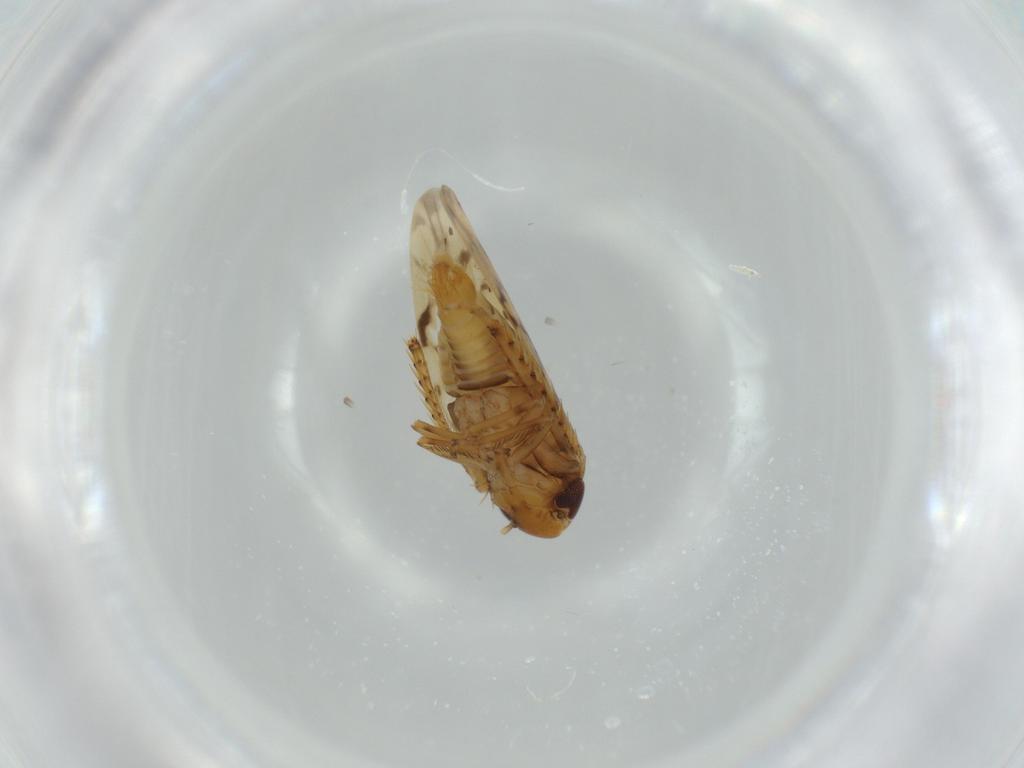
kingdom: Animalia
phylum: Arthropoda
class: Insecta
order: Hemiptera
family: Cicadellidae
